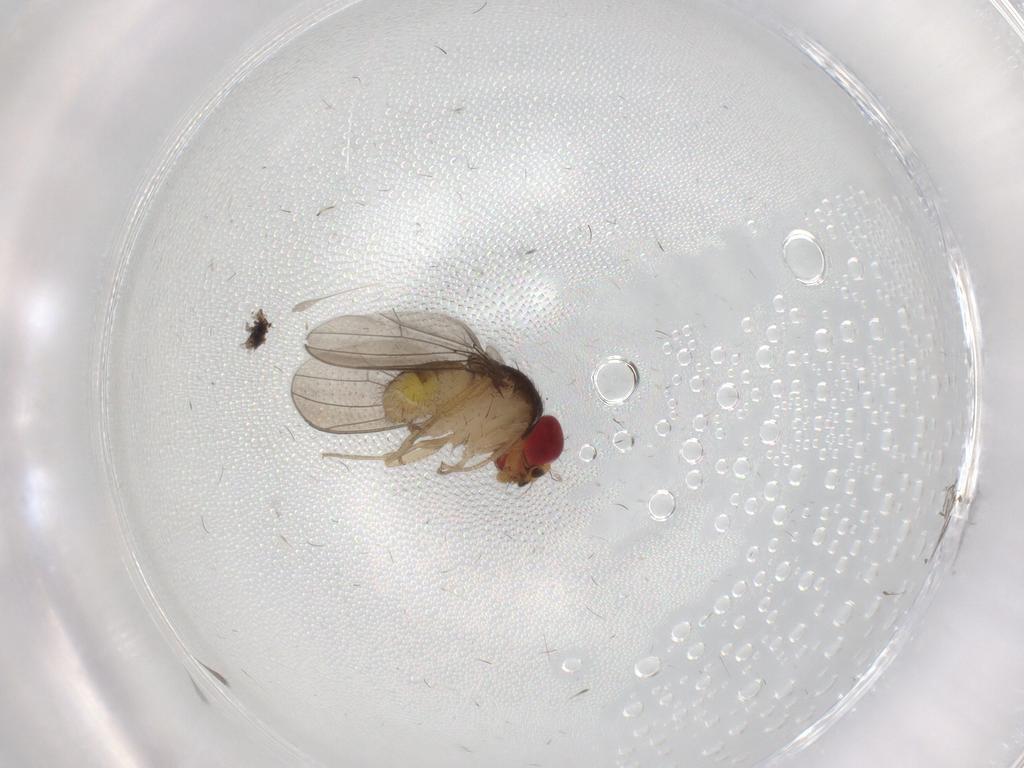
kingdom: Animalia
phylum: Arthropoda
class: Insecta
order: Diptera
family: Drosophilidae
